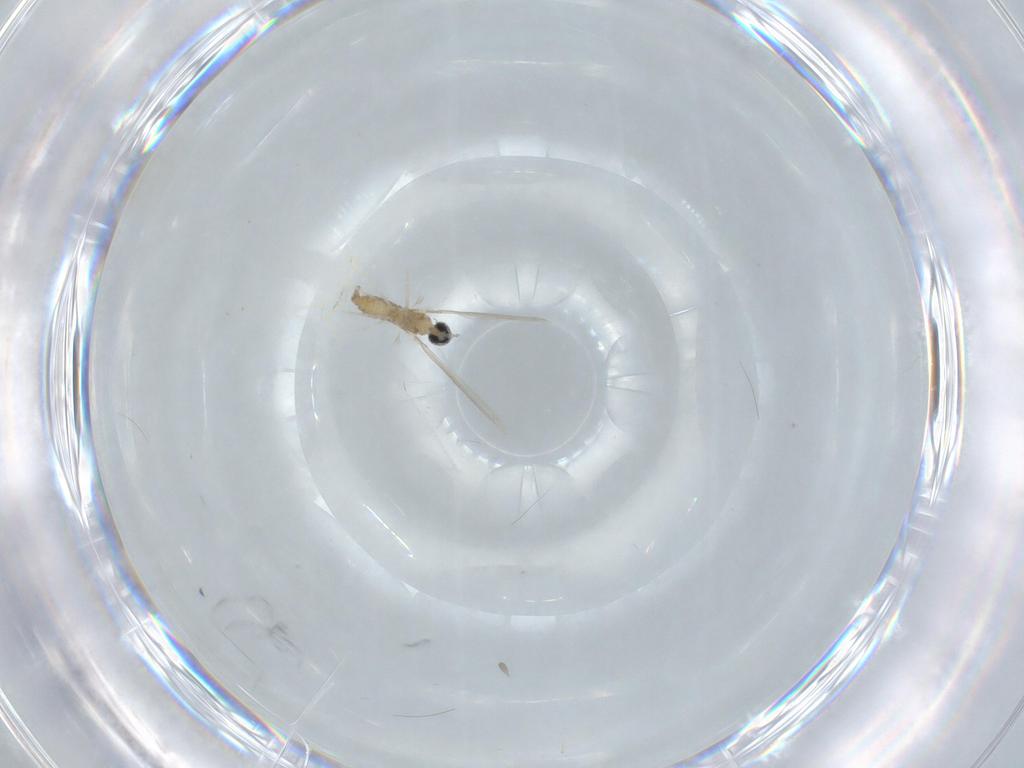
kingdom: Animalia
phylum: Arthropoda
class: Insecta
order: Diptera
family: Cecidomyiidae
